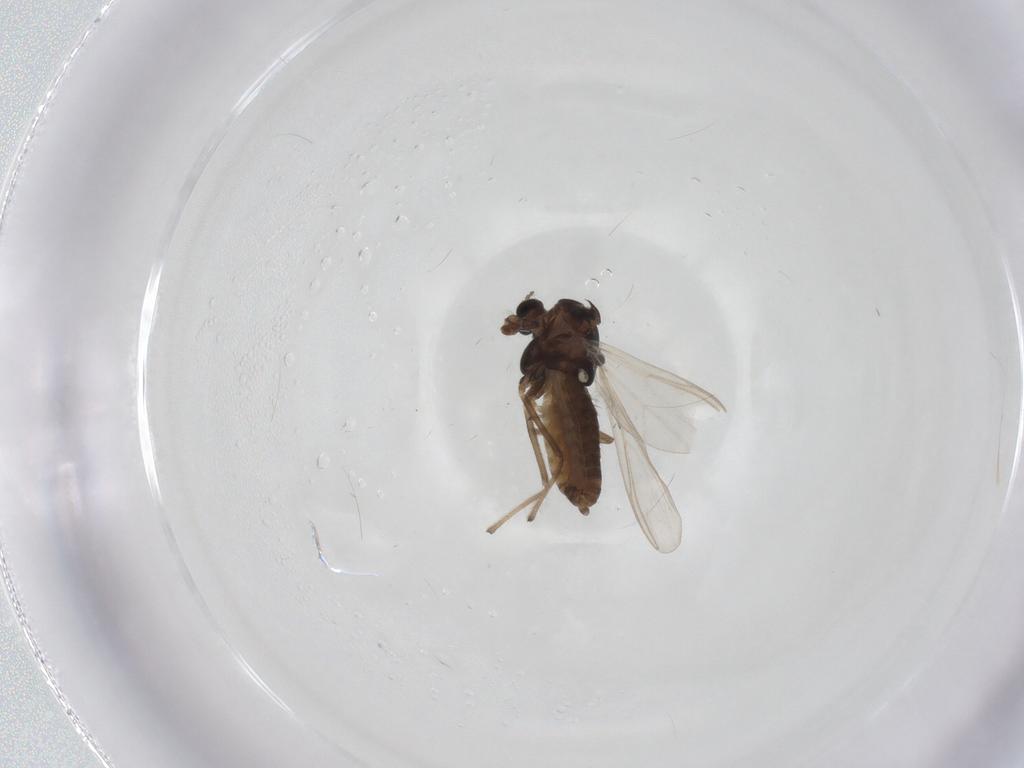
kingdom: Animalia
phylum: Arthropoda
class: Insecta
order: Diptera
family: Chironomidae
